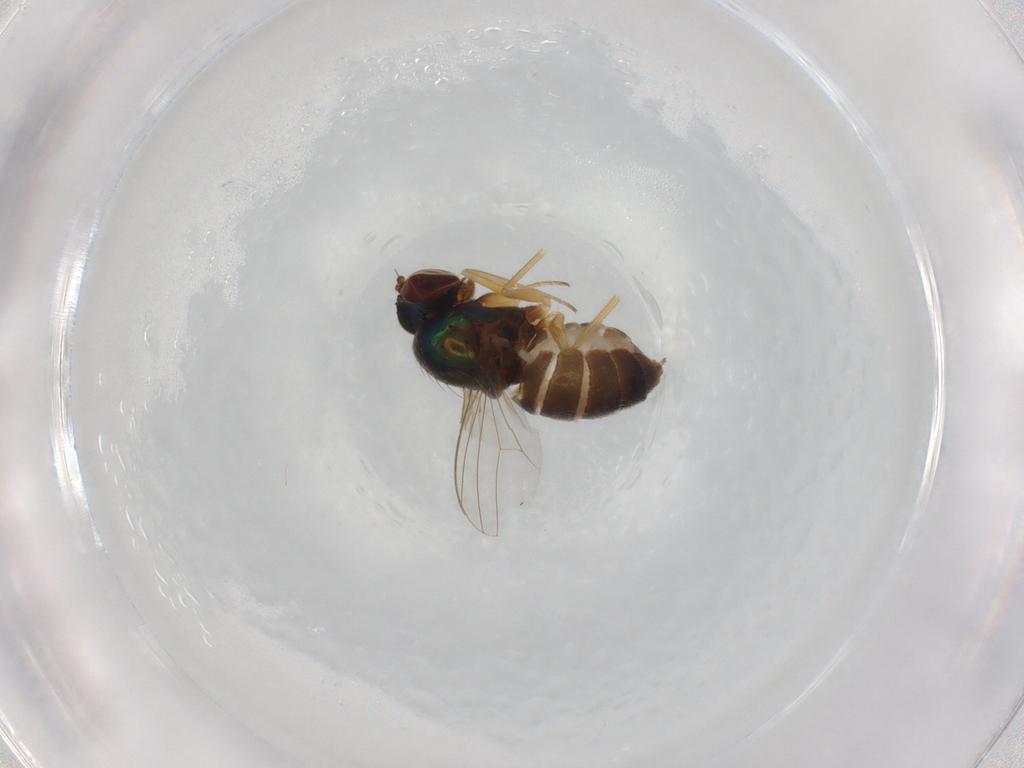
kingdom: Animalia
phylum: Arthropoda
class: Insecta
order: Diptera
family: Dolichopodidae
